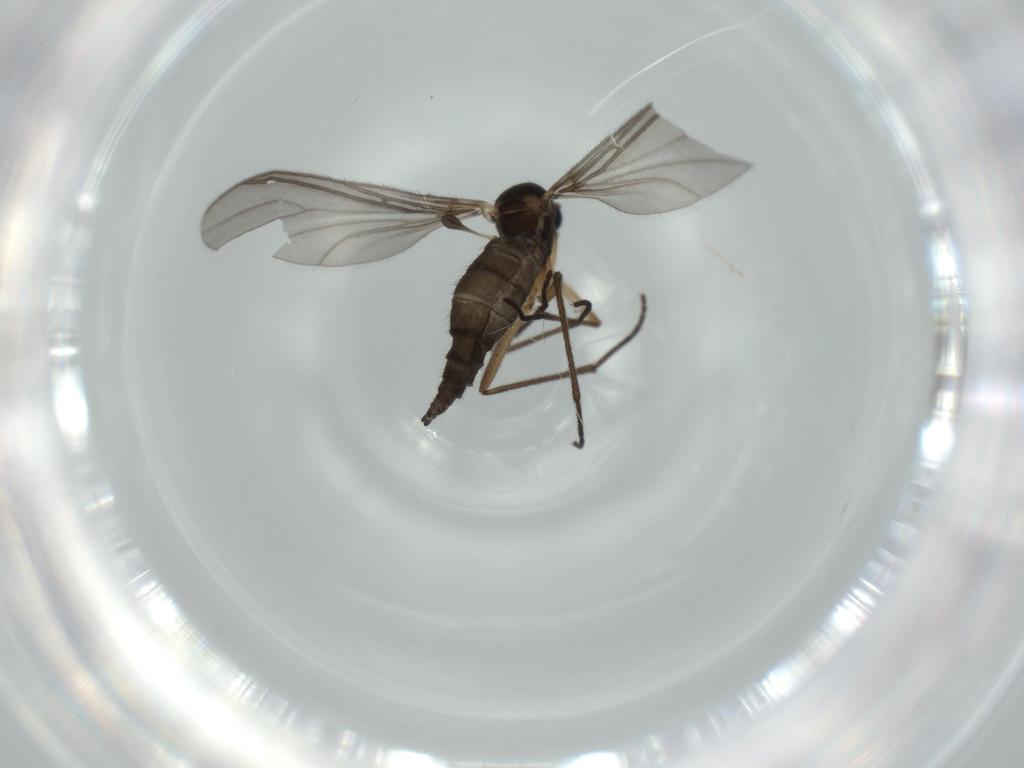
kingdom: Animalia
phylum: Arthropoda
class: Insecta
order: Diptera
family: Sciaridae
